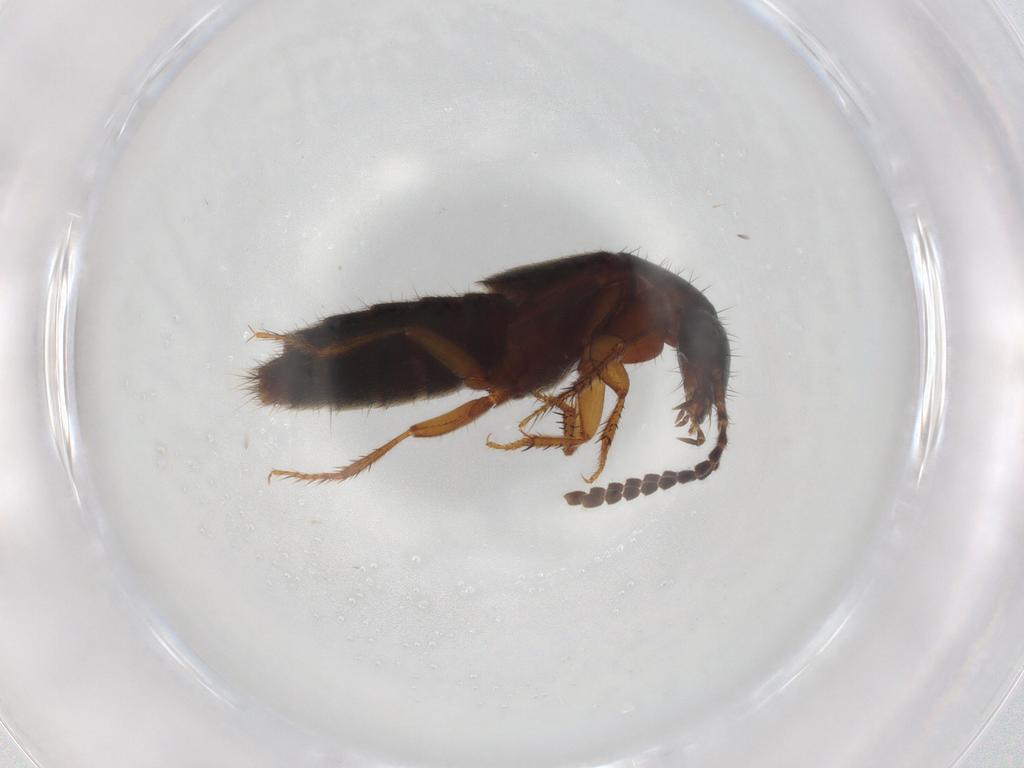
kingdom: Animalia
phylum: Arthropoda
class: Insecta
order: Coleoptera
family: Staphylinidae
